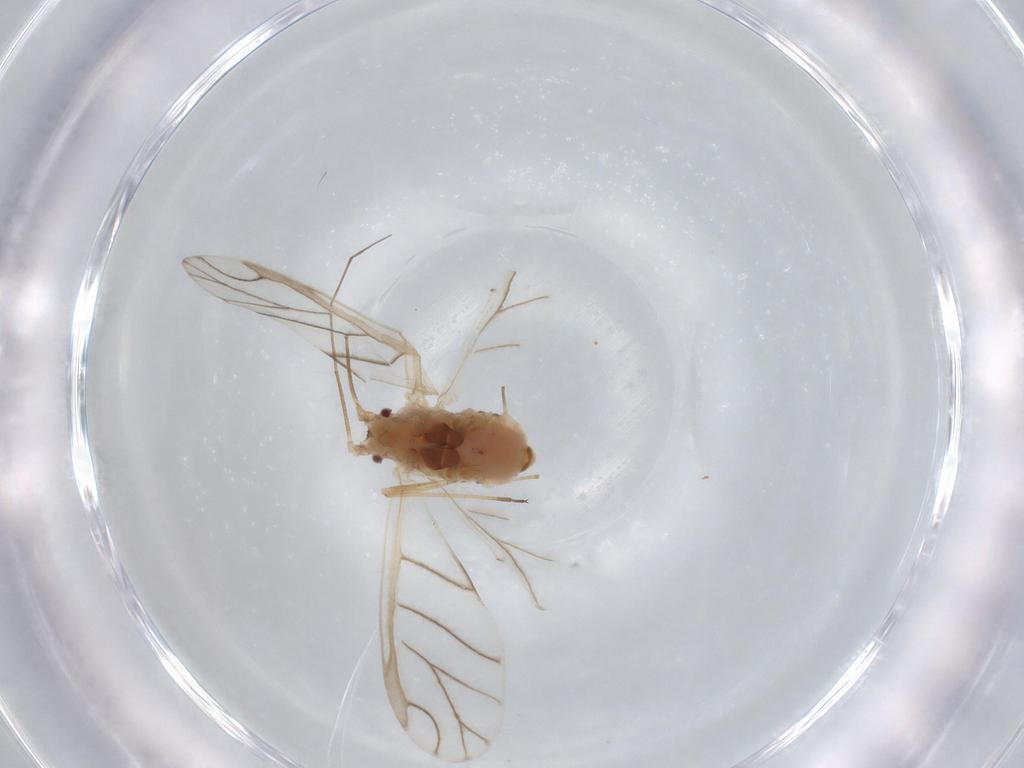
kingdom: Animalia
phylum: Arthropoda
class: Insecta
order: Hemiptera
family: Aphididae
